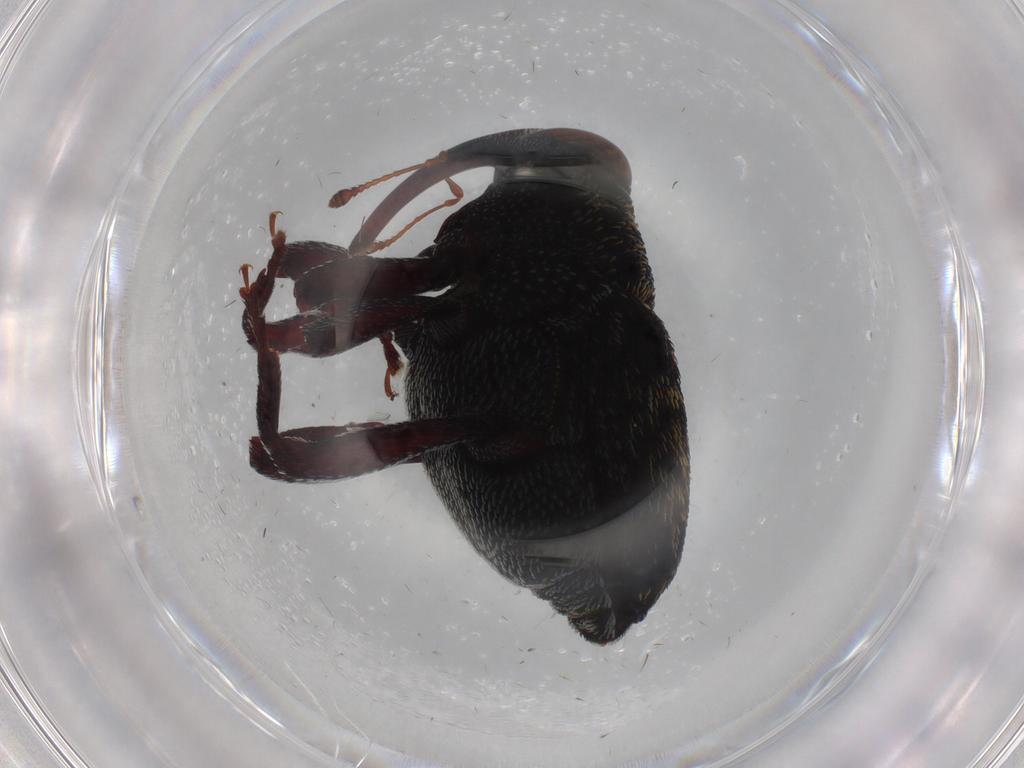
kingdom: Animalia
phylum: Arthropoda
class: Insecta
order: Coleoptera
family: Curculionidae
